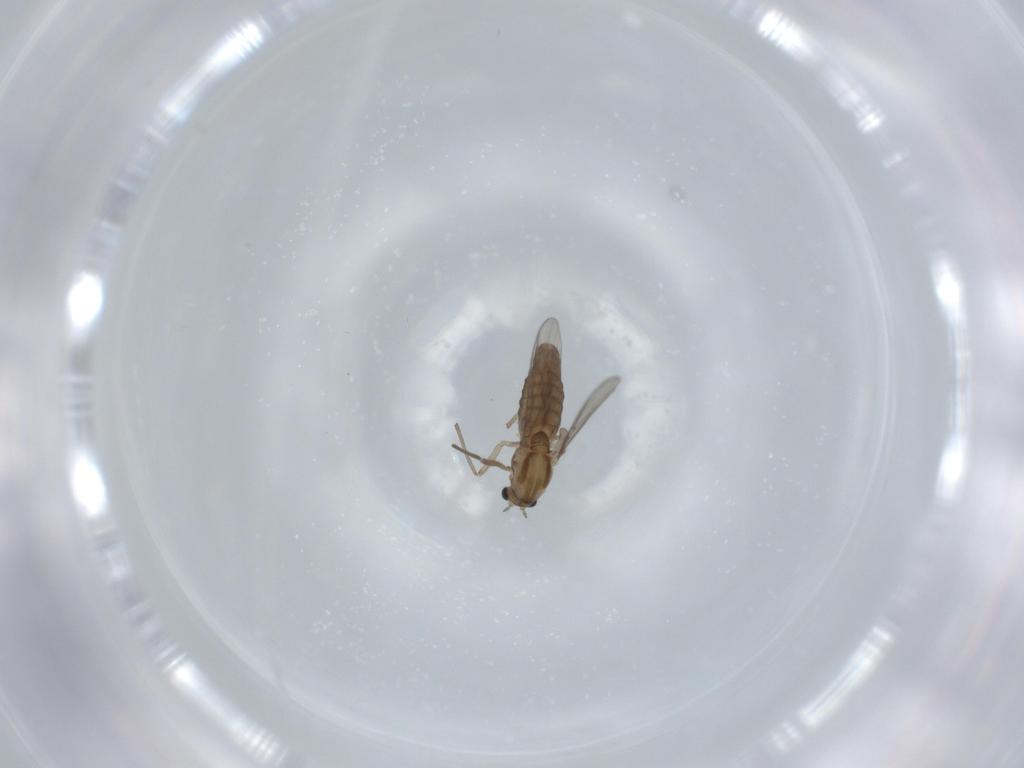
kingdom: Animalia
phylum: Arthropoda
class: Insecta
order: Diptera
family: Chironomidae
